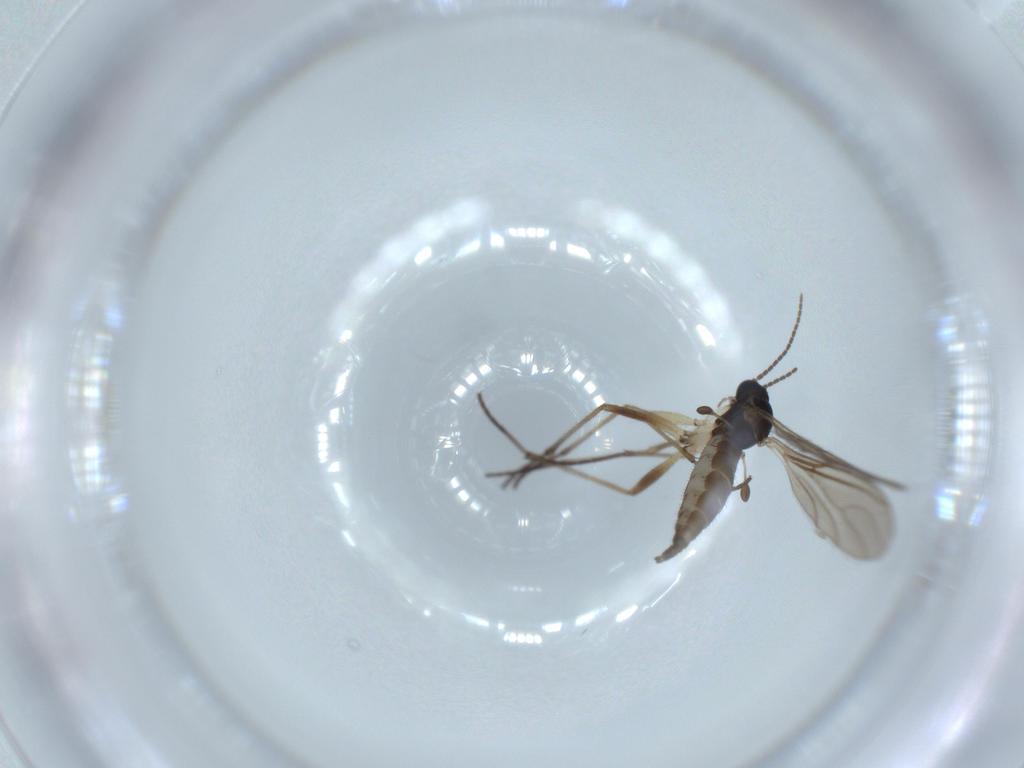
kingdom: Animalia
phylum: Arthropoda
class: Insecta
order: Diptera
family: Sciaridae
